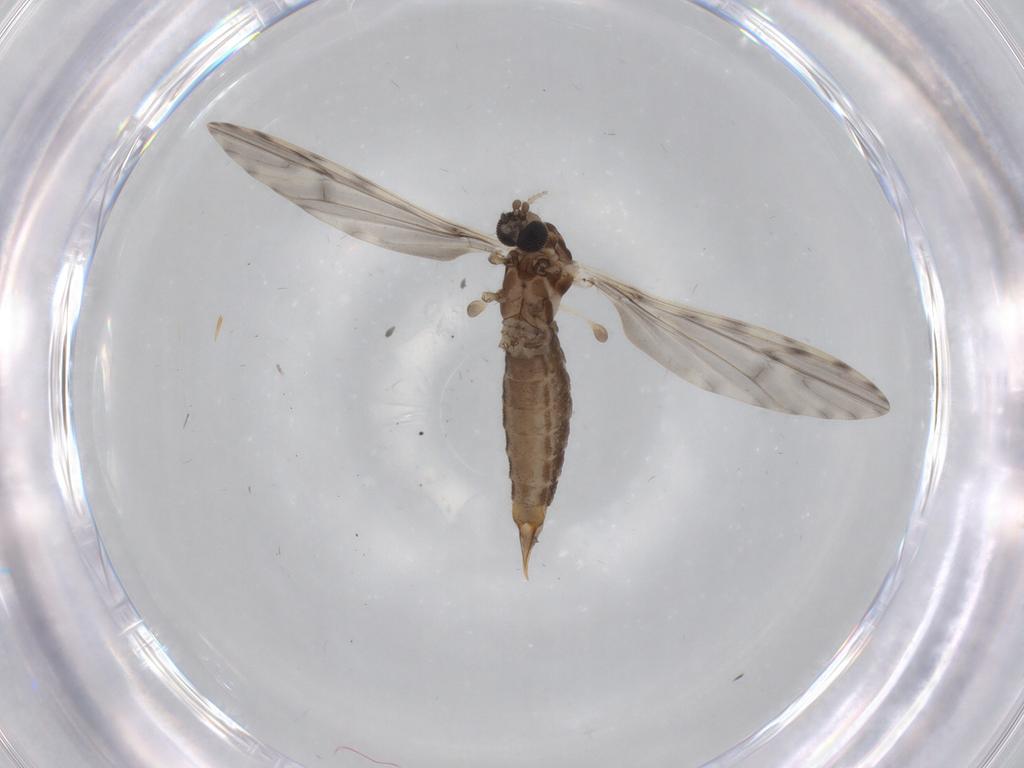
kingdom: Animalia
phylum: Arthropoda
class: Insecta
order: Diptera
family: Limoniidae
